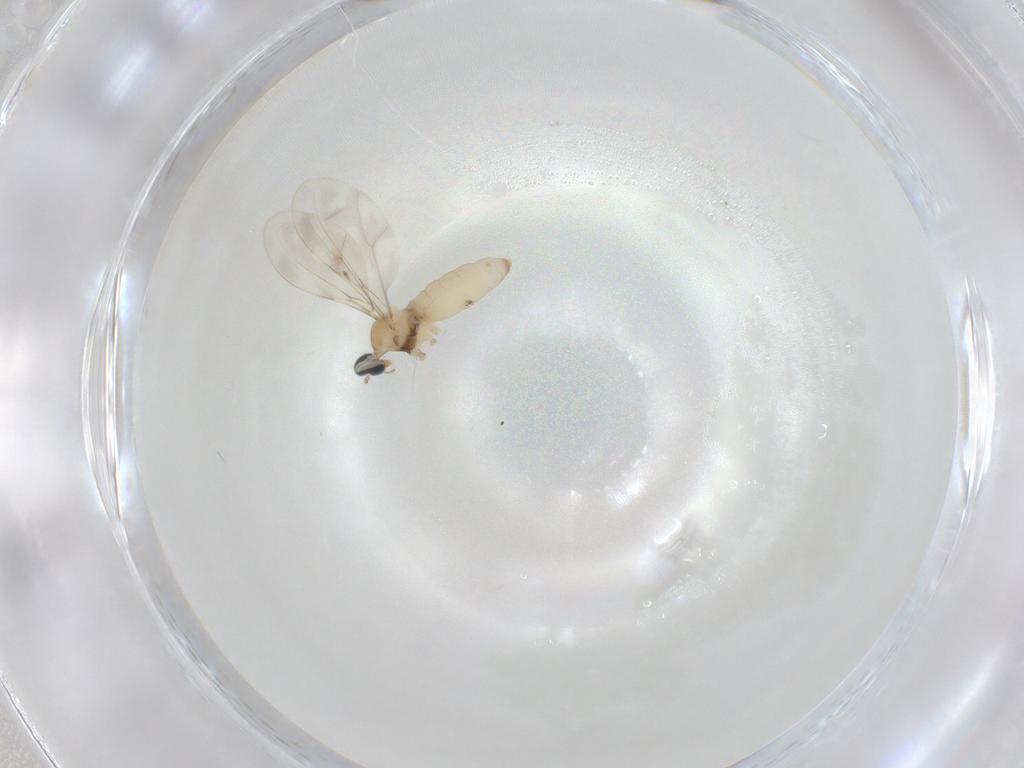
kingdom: Animalia
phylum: Arthropoda
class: Insecta
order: Diptera
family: Cecidomyiidae
